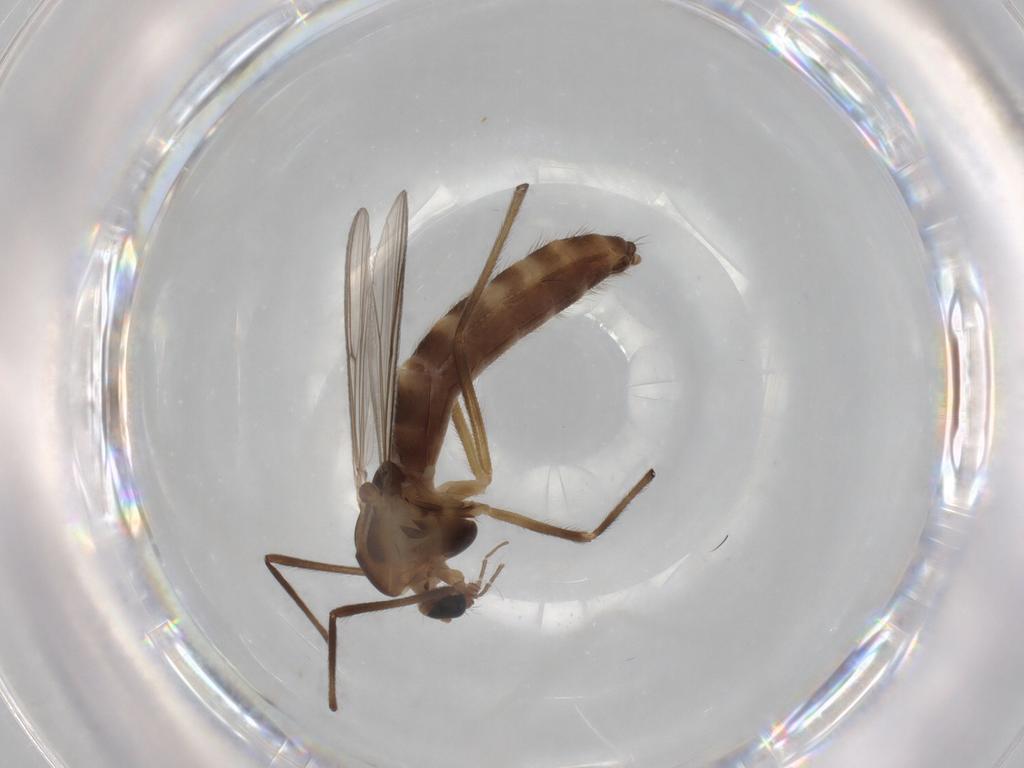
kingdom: Animalia
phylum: Arthropoda
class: Insecta
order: Diptera
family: Chironomidae
